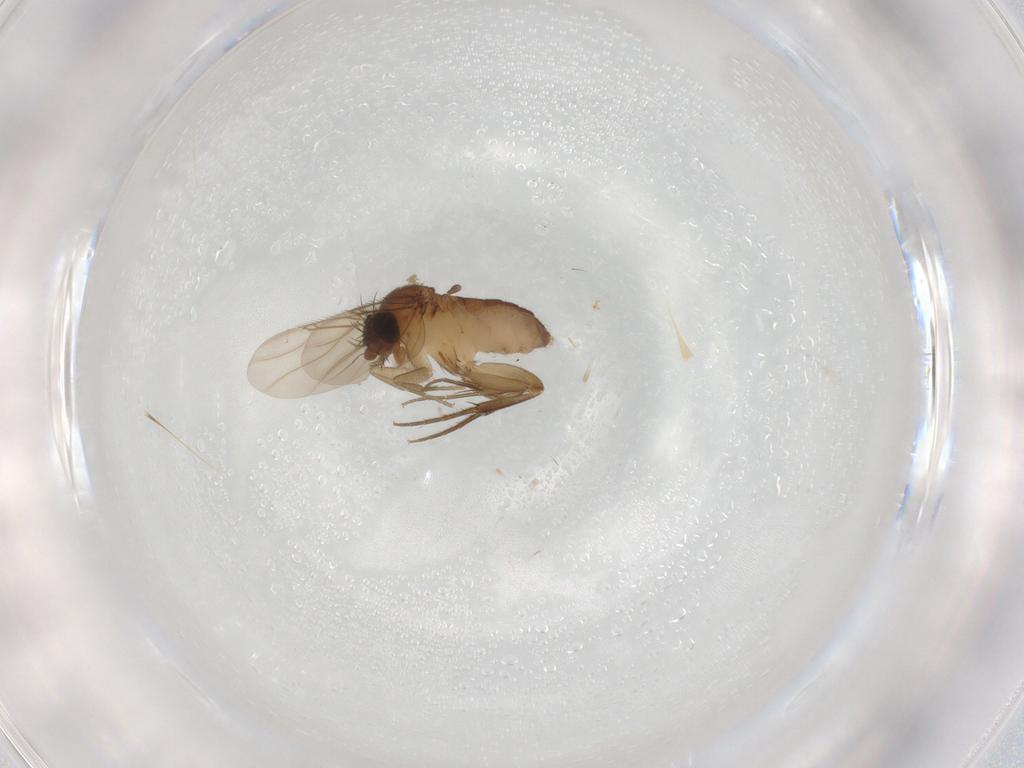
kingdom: Animalia
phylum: Arthropoda
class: Insecta
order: Diptera
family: Phoridae
